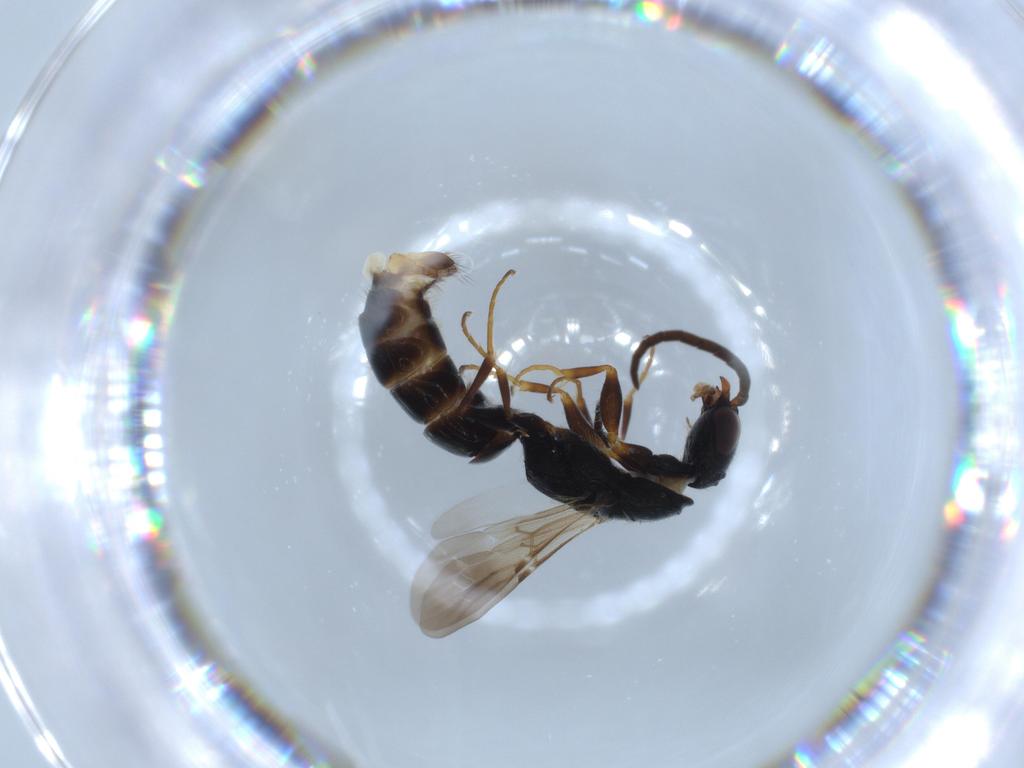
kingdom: Animalia
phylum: Arthropoda
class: Insecta
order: Hymenoptera
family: Bethylidae
